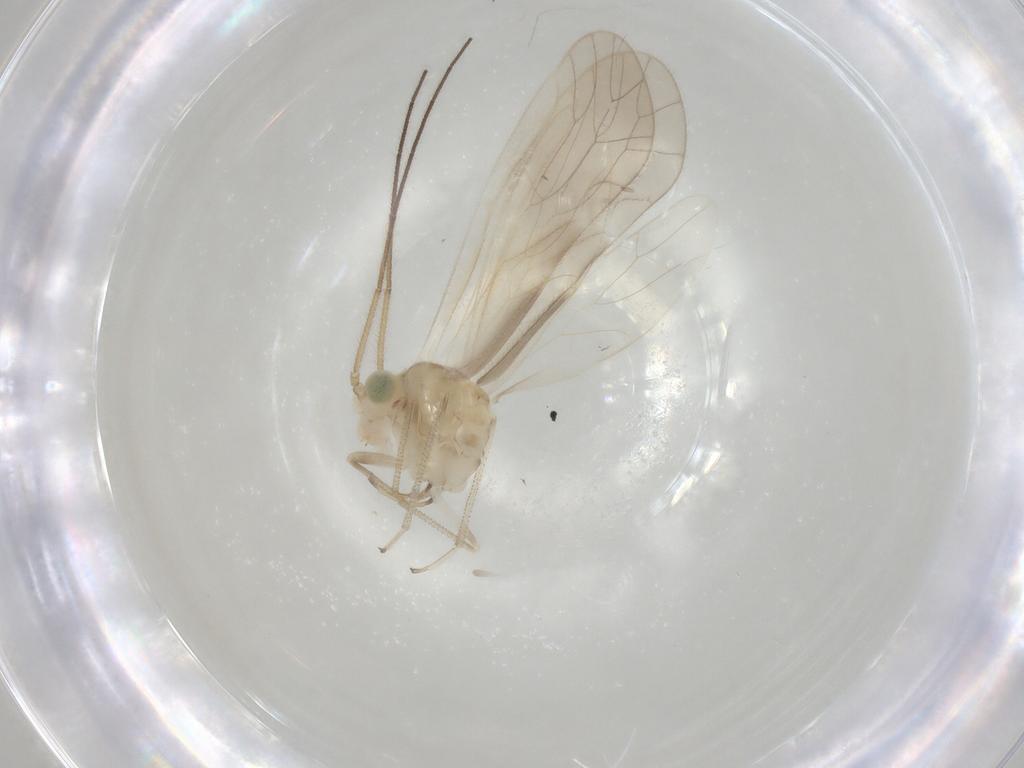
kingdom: Animalia
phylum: Arthropoda
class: Insecta
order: Psocodea
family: Caeciliusidae
